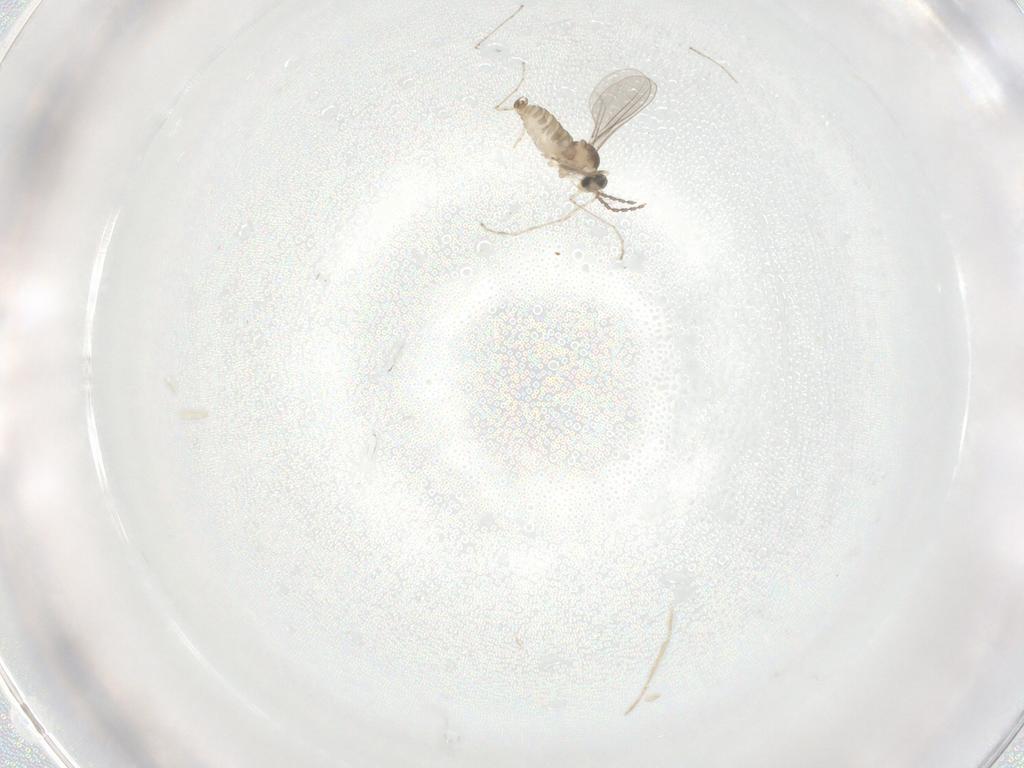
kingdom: Animalia
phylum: Arthropoda
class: Insecta
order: Diptera
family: Cecidomyiidae
